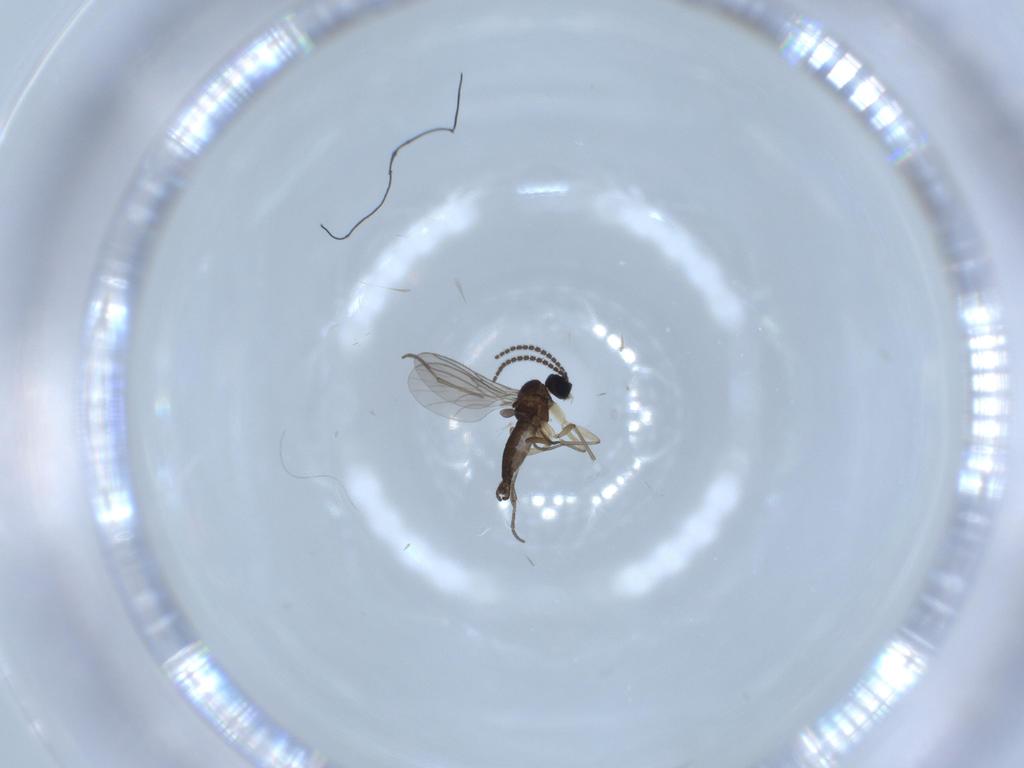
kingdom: Animalia
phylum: Arthropoda
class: Insecta
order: Diptera
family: Sciaridae
